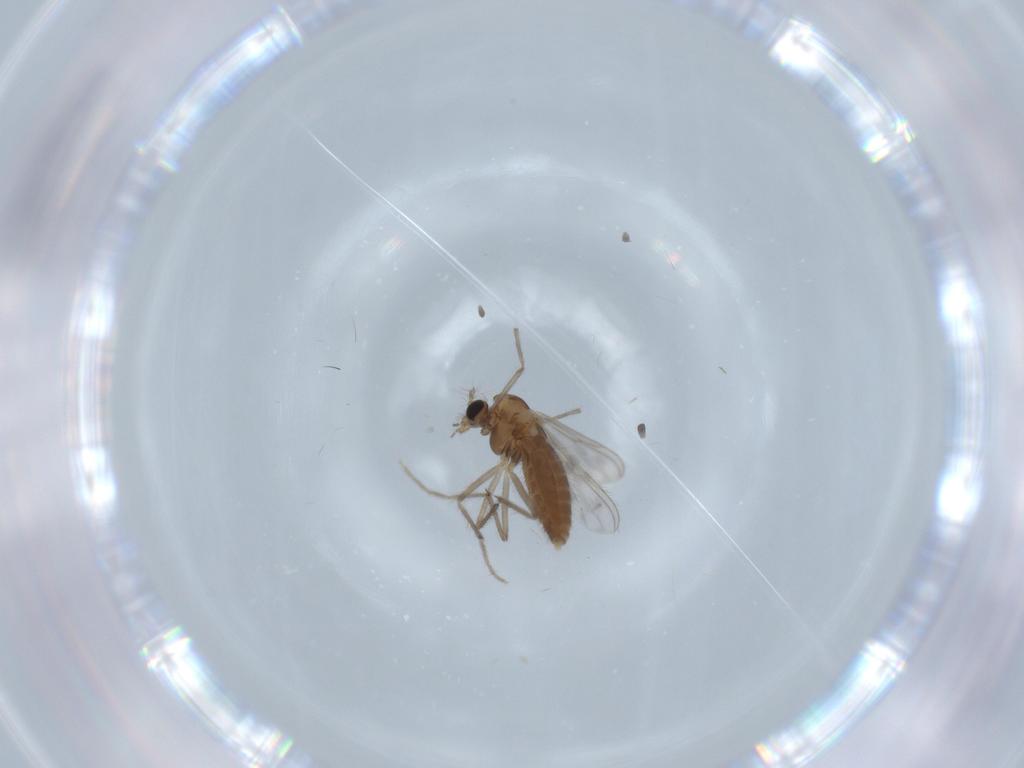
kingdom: Animalia
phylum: Arthropoda
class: Insecta
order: Diptera
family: Chironomidae
